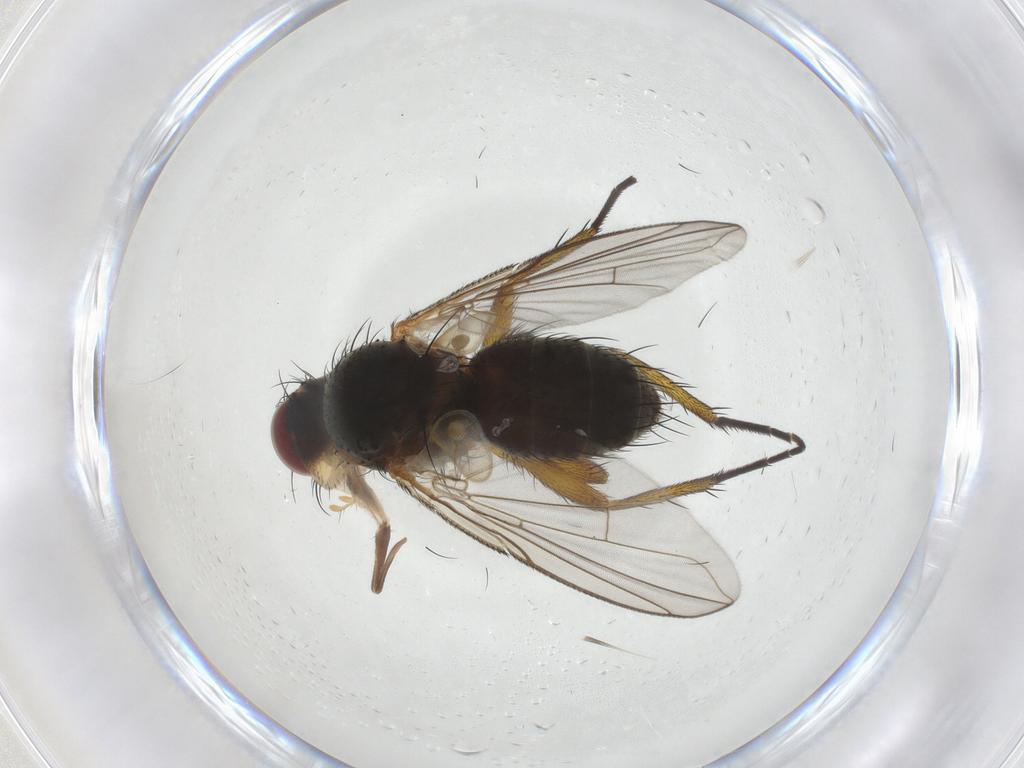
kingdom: Animalia
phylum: Arthropoda
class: Insecta
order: Diptera
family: Tachinidae
